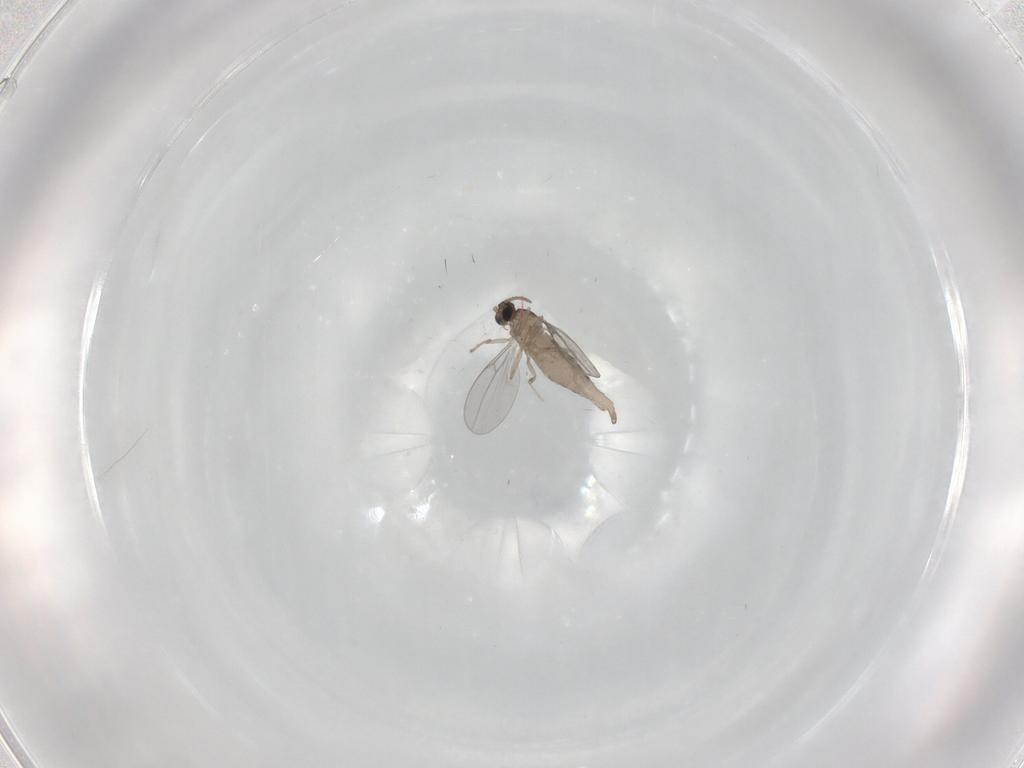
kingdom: Animalia
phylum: Arthropoda
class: Insecta
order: Diptera
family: Cecidomyiidae
